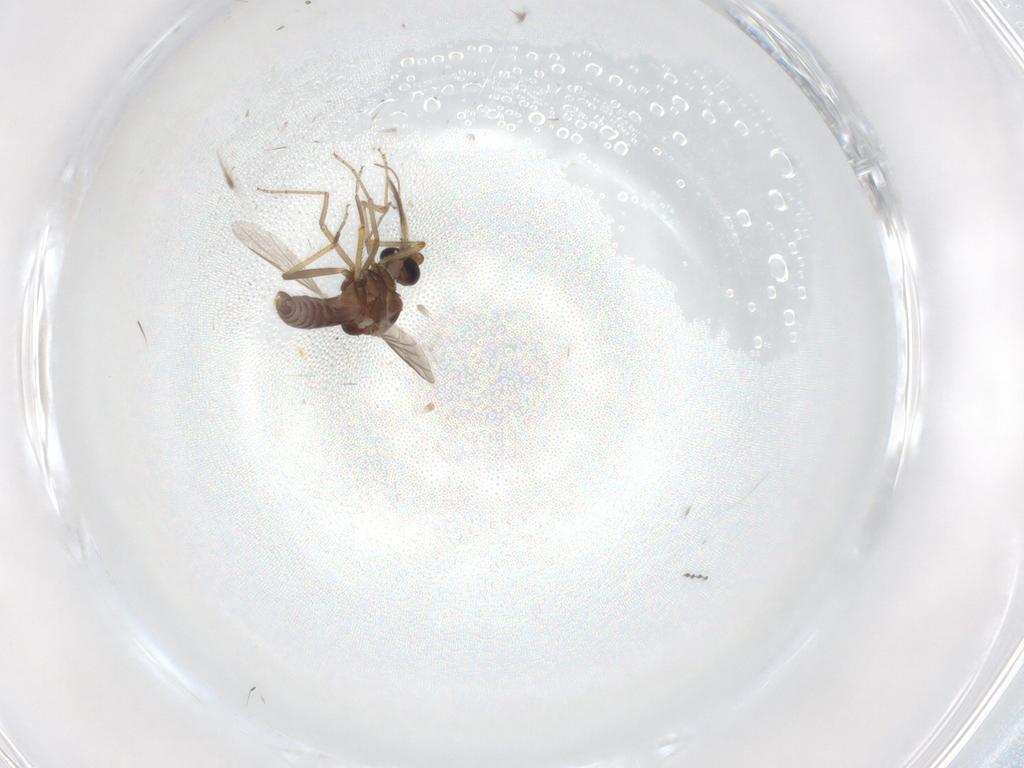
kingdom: Animalia
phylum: Arthropoda
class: Insecta
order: Diptera
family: Ceratopogonidae
